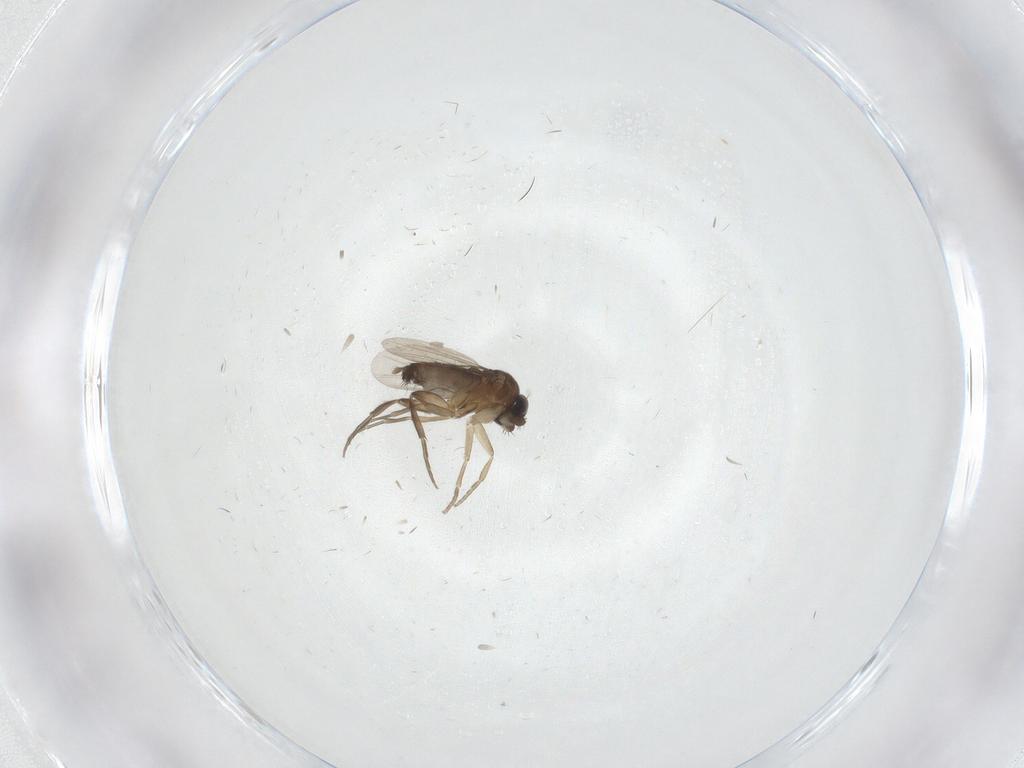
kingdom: Animalia
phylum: Arthropoda
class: Insecta
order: Diptera
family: Phoridae
